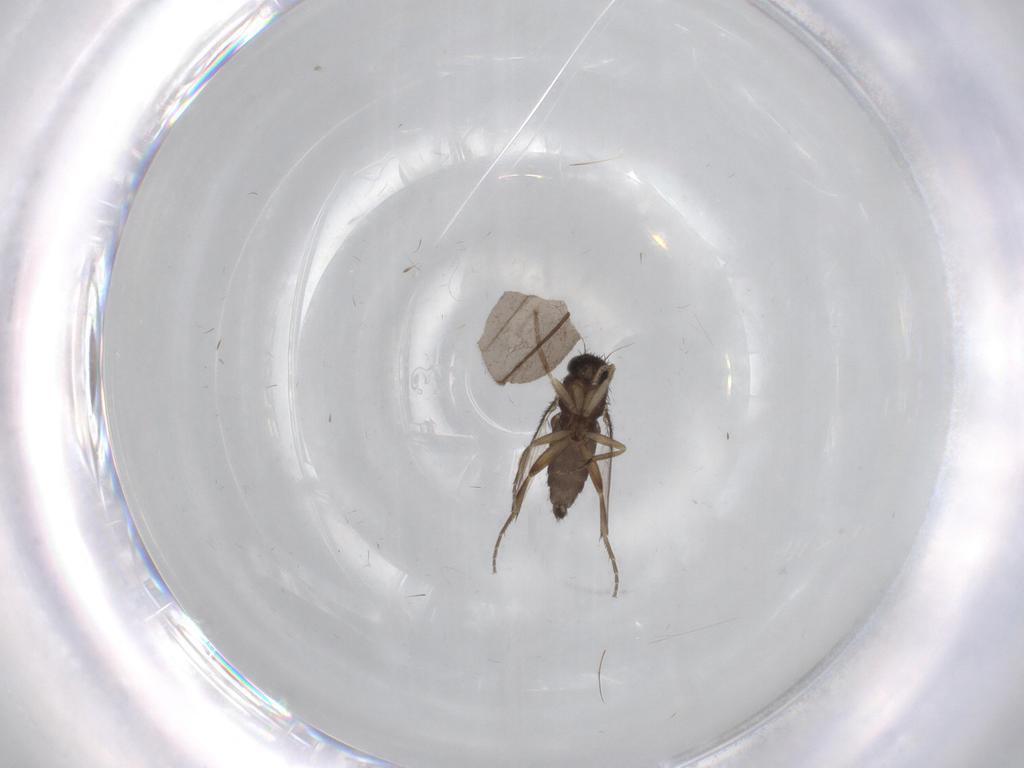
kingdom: Animalia
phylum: Arthropoda
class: Insecta
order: Diptera
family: Phoridae
